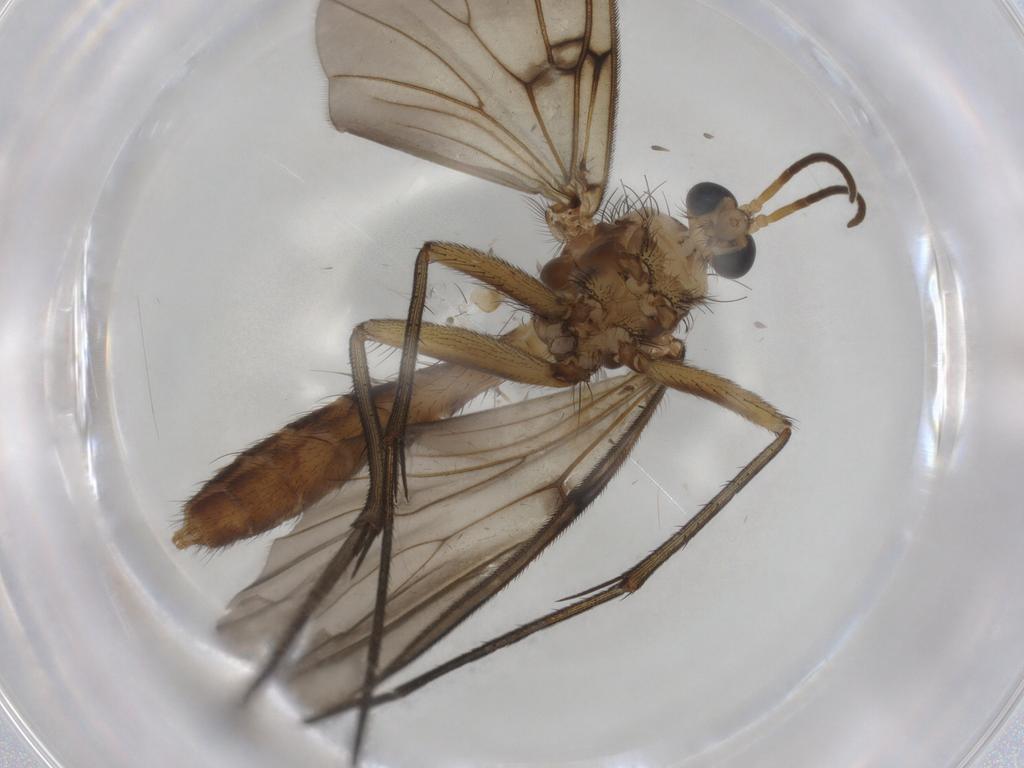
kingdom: Animalia
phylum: Arthropoda
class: Insecta
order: Diptera
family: Mycetophilidae
